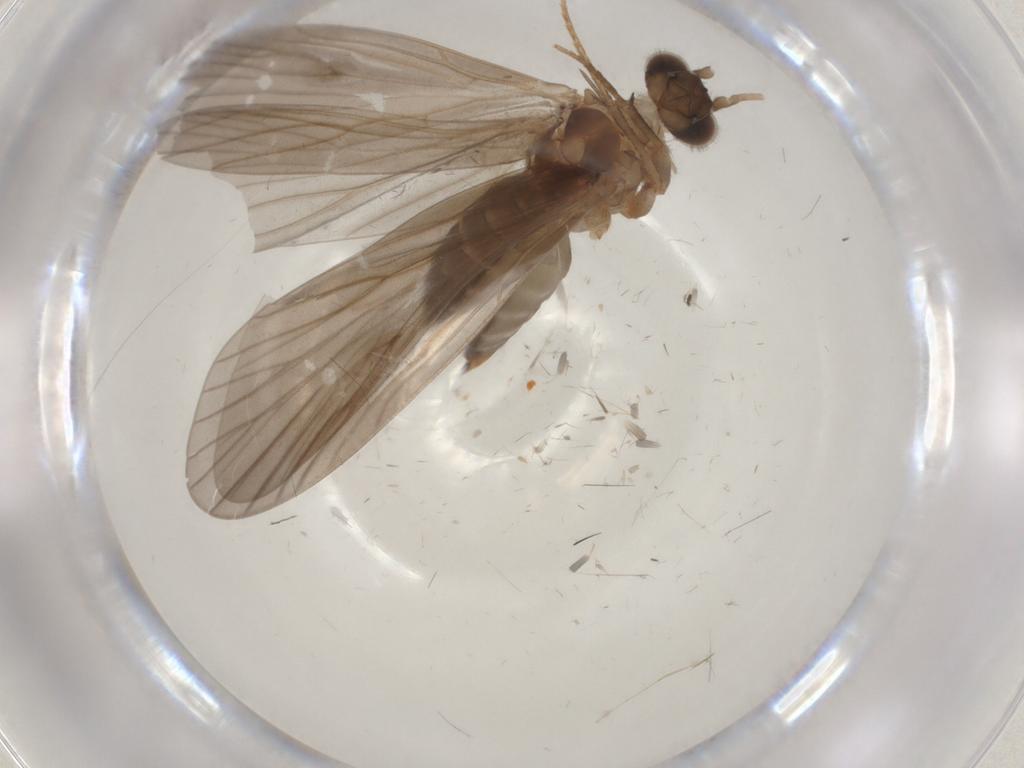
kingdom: Animalia
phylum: Arthropoda
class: Insecta
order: Trichoptera
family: Philopotamidae
